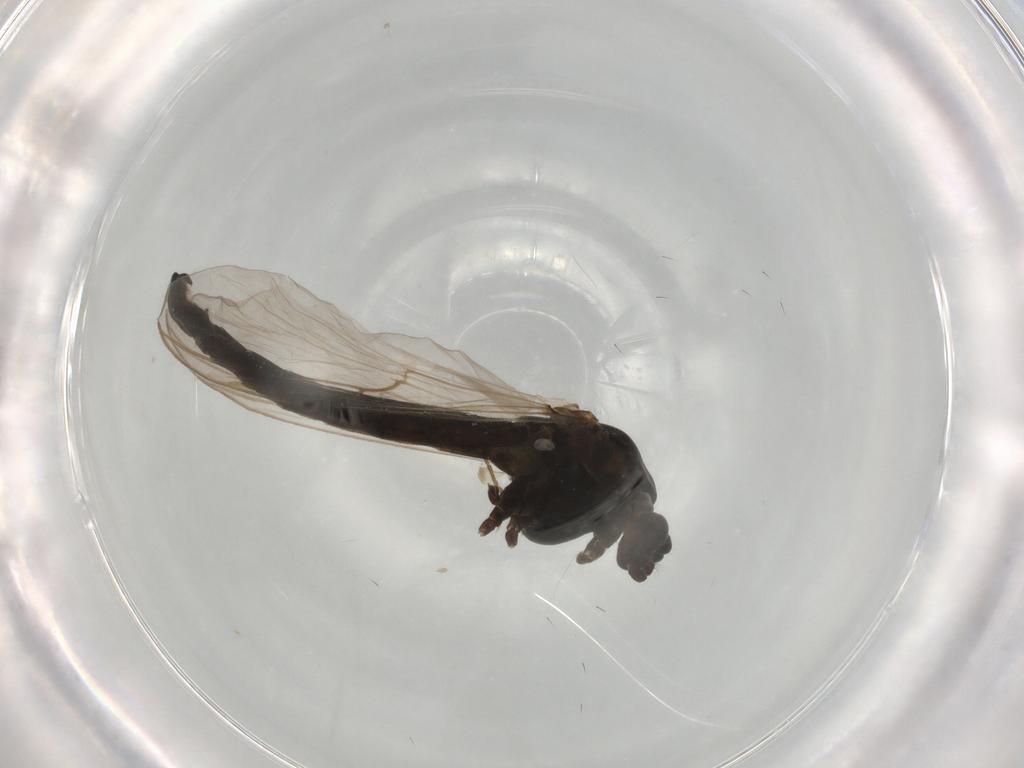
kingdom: Animalia
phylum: Arthropoda
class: Insecta
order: Diptera
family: Chironomidae
